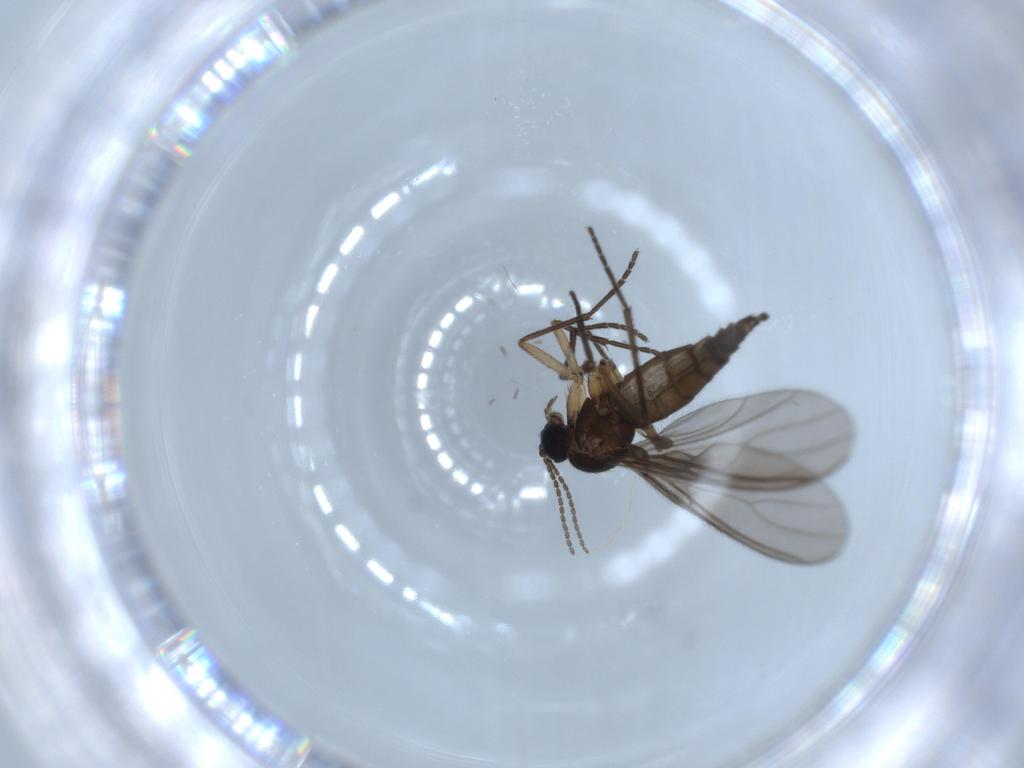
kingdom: Animalia
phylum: Arthropoda
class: Insecta
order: Diptera
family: Sciaridae
